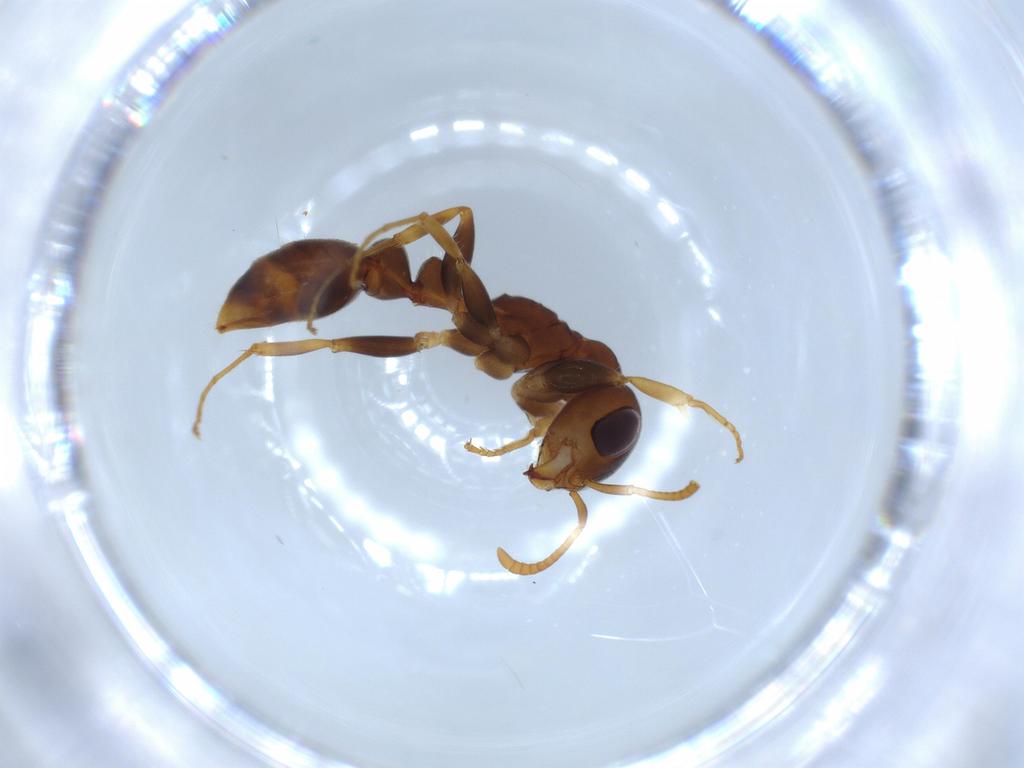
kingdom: Animalia
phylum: Arthropoda
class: Insecta
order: Hymenoptera
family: Formicidae
